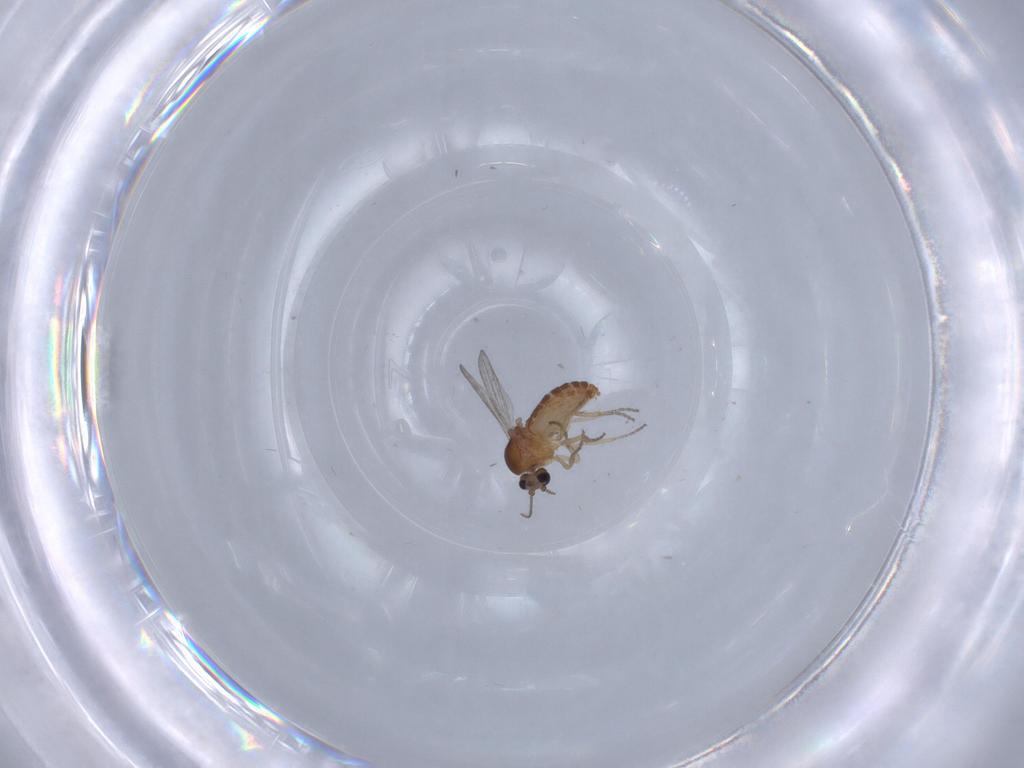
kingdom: Animalia
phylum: Arthropoda
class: Insecta
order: Diptera
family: Ceratopogonidae
